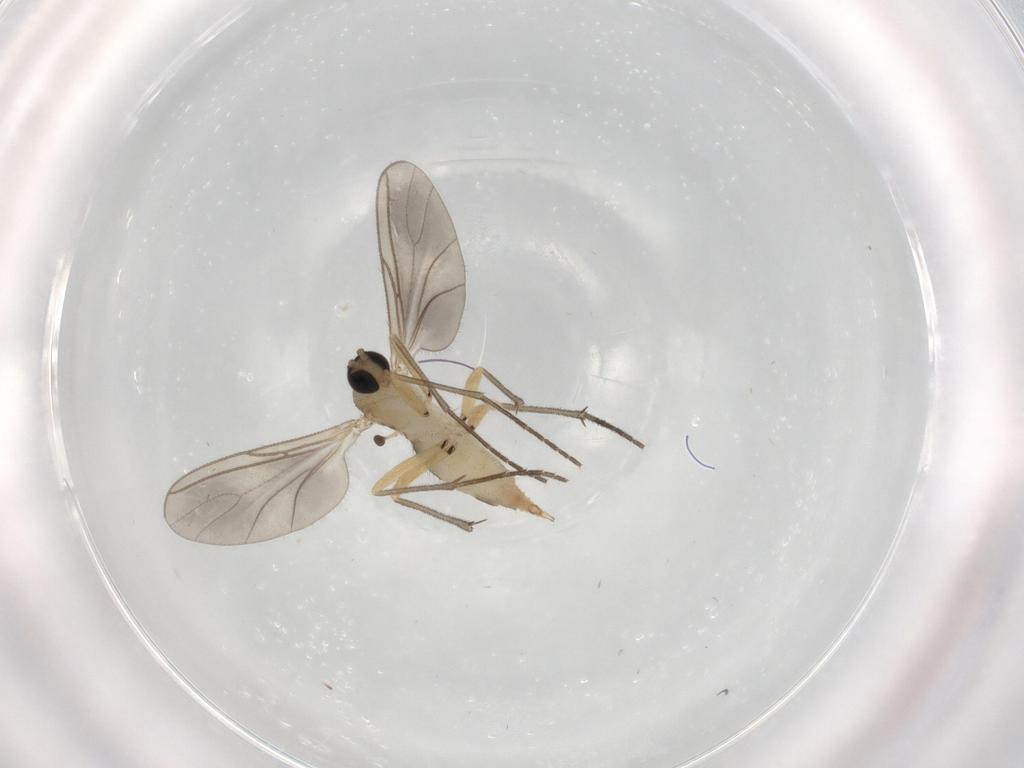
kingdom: Animalia
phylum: Arthropoda
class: Insecta
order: Diptera
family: Sciaridae
